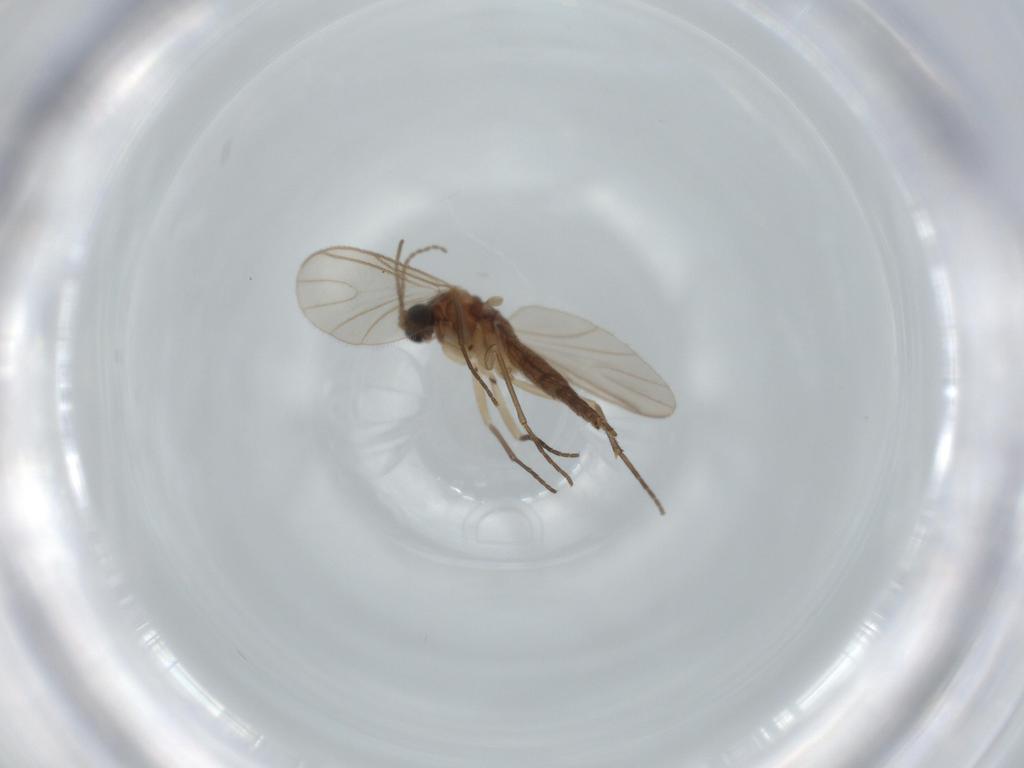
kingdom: Animalia
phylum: Arthropoda
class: Insecta
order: Diptera
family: Sciaridae
